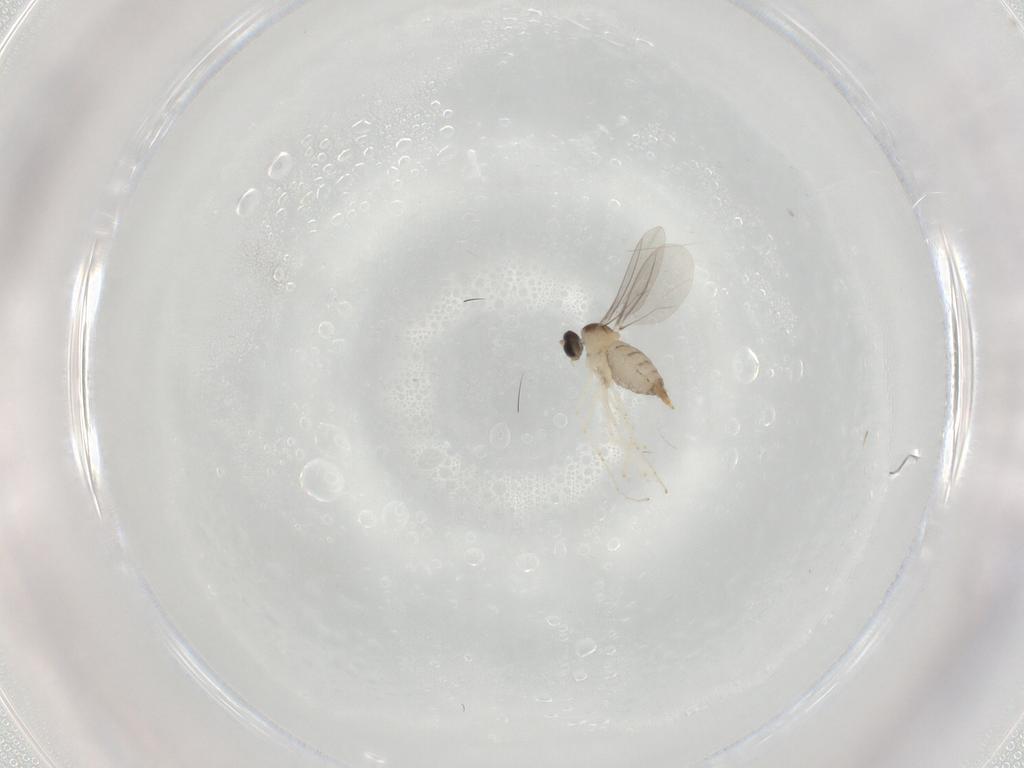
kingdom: Animalia
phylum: Arthropoda
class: Insecta
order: Diptera
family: Cecidomyiidae
